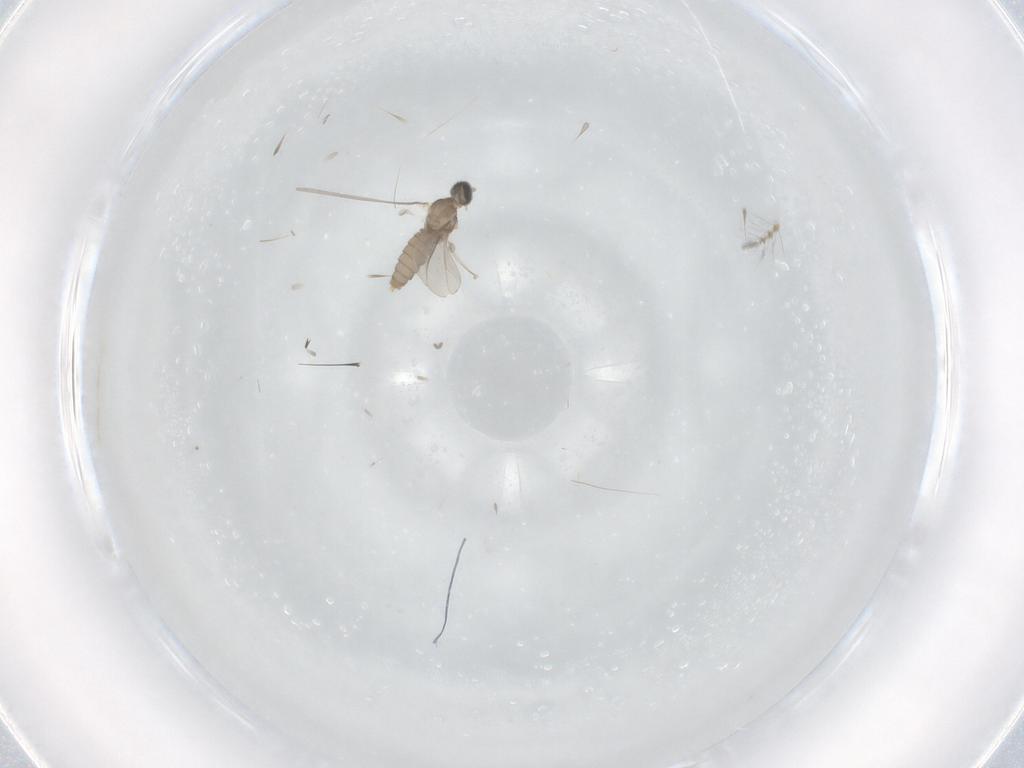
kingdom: Animalia
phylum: Arthropoda
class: Insecta
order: Diptera
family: Cecidomyiidae
